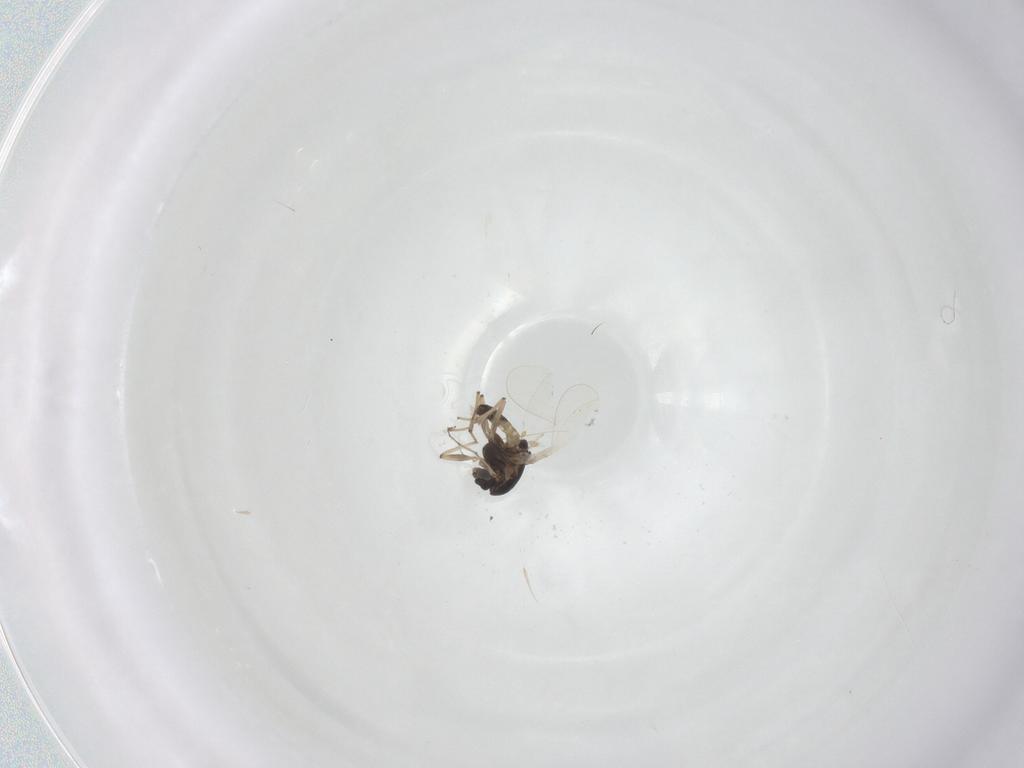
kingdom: Animalia
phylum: Arthropoda
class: Insecta
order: Diptera
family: Chironomidae
